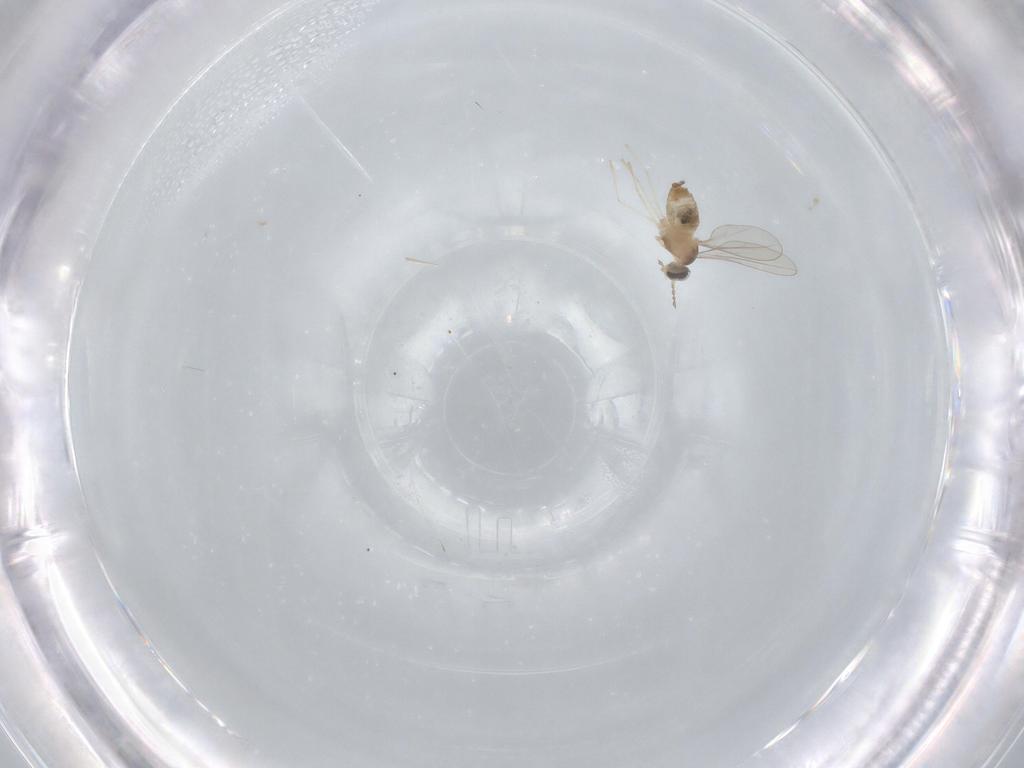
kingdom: Animalia
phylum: Arthropoda
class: Insecta
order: Diptera
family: Cecidomyiidae
